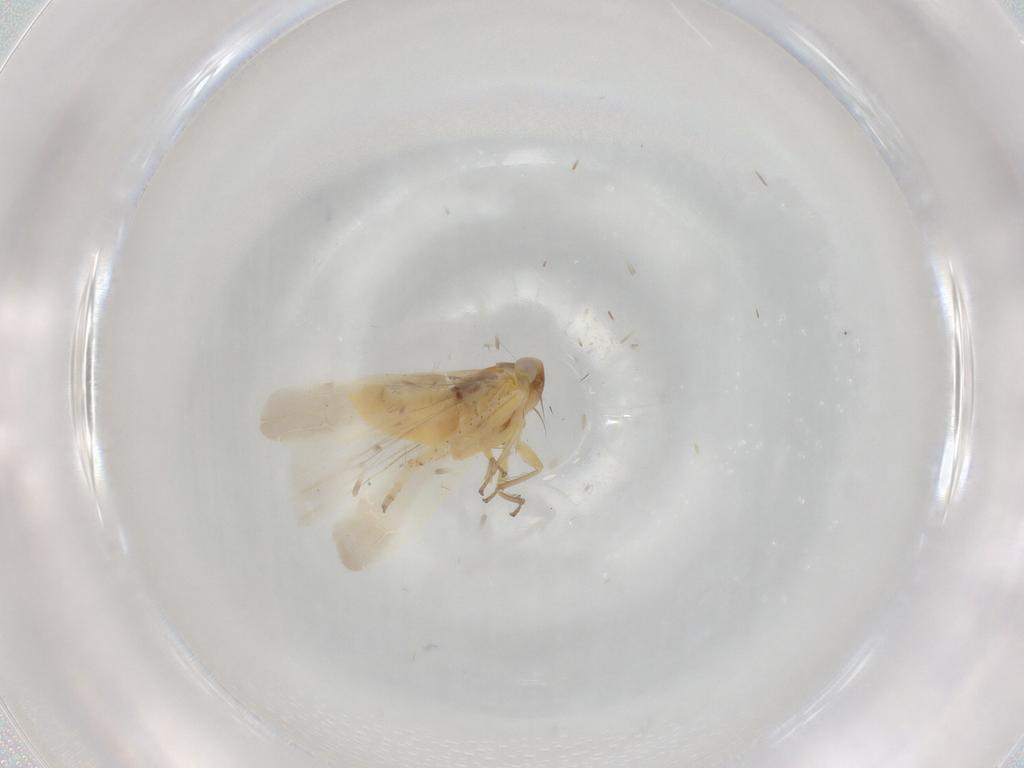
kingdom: Animalia
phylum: Arthropoda
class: Insecta
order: Hemiptera
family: Cicadellidae
